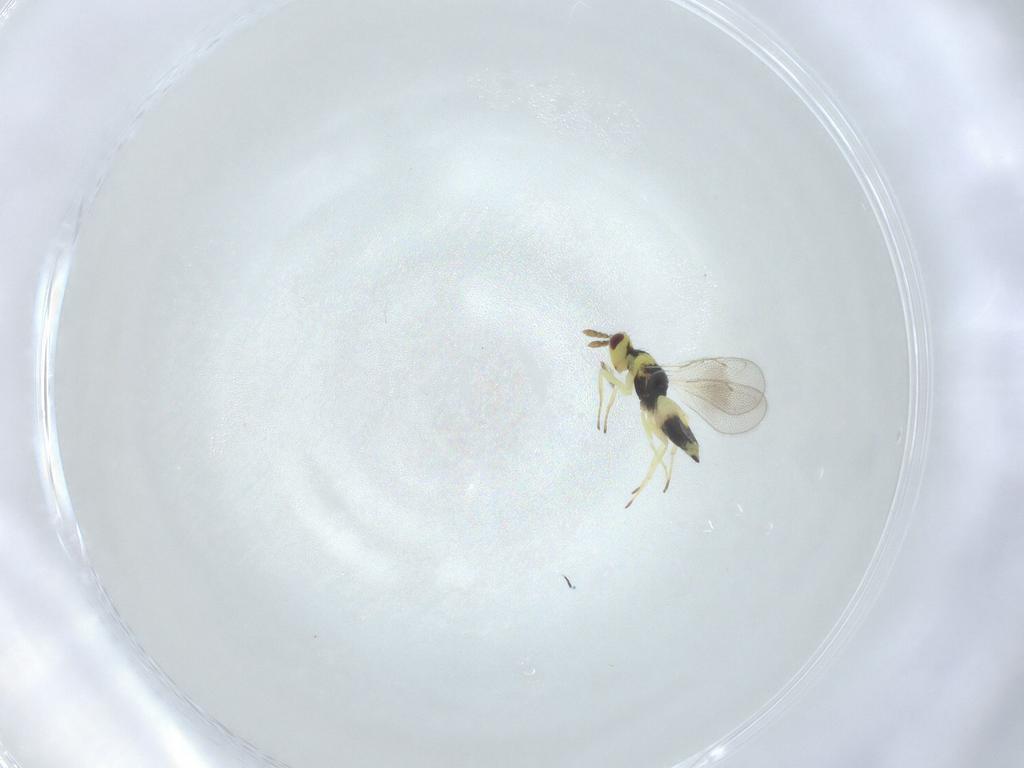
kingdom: Animalia
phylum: Arthropoda
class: Insecta
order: Hymenoptera
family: Eulophidae
